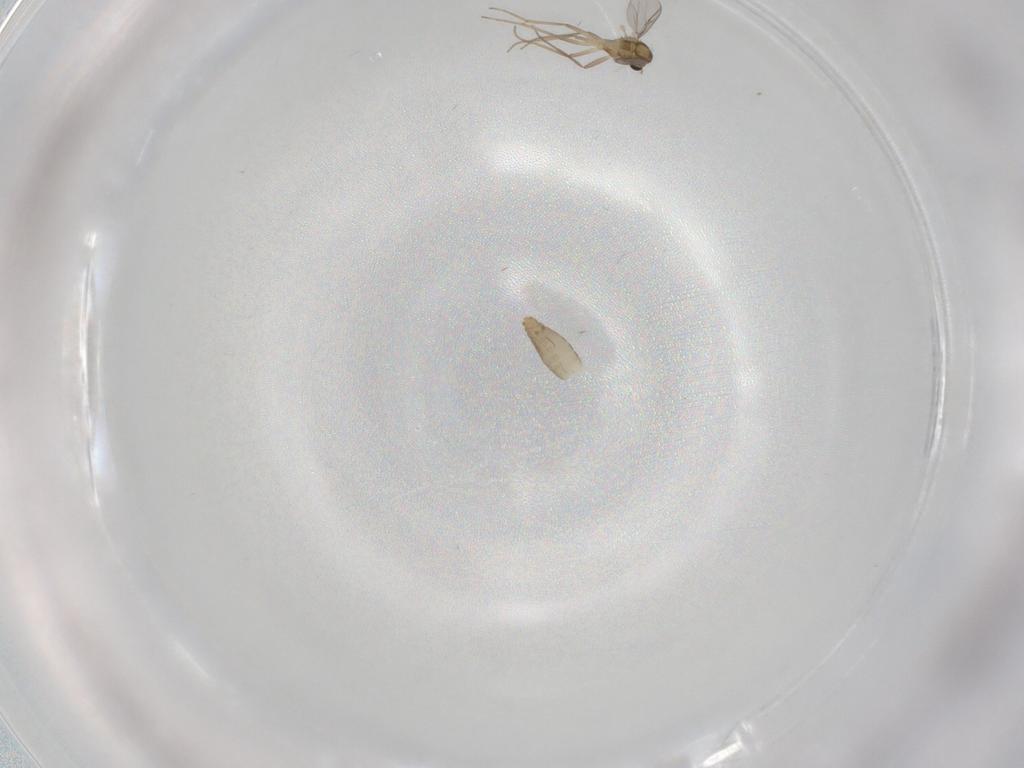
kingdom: Animalia
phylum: Arthropoda
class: Insecta
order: Diptera
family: Chironomidae
